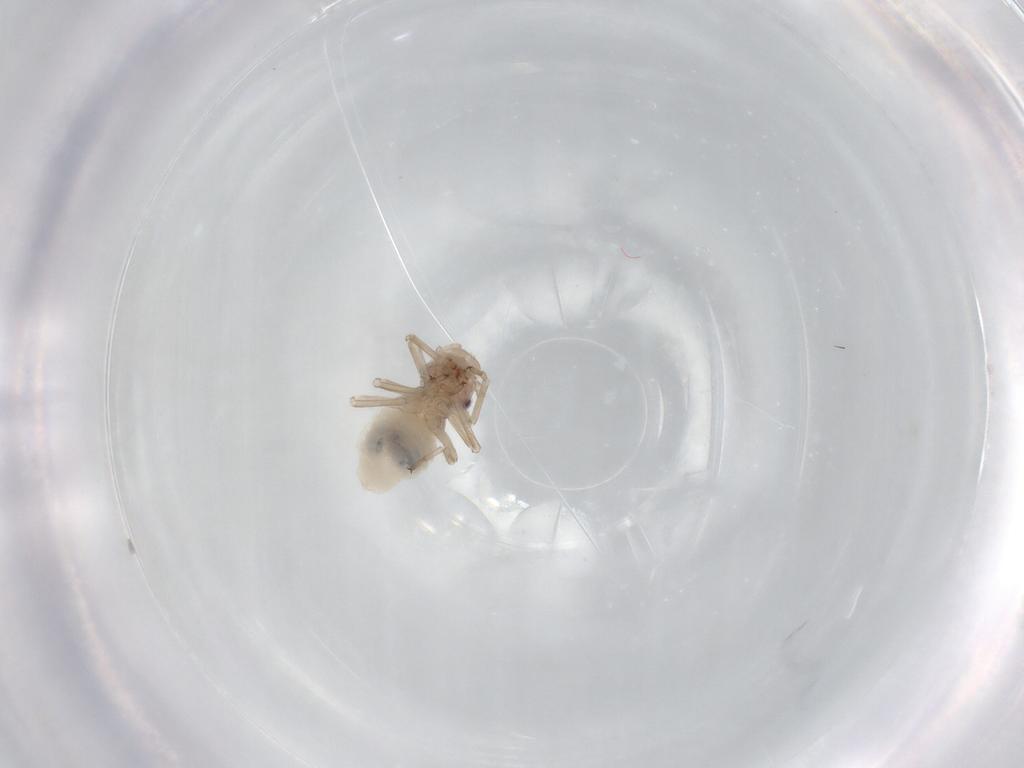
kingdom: Animalia
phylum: Arthropoda
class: Insecta
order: Psocodea
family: Stenopsocidae
